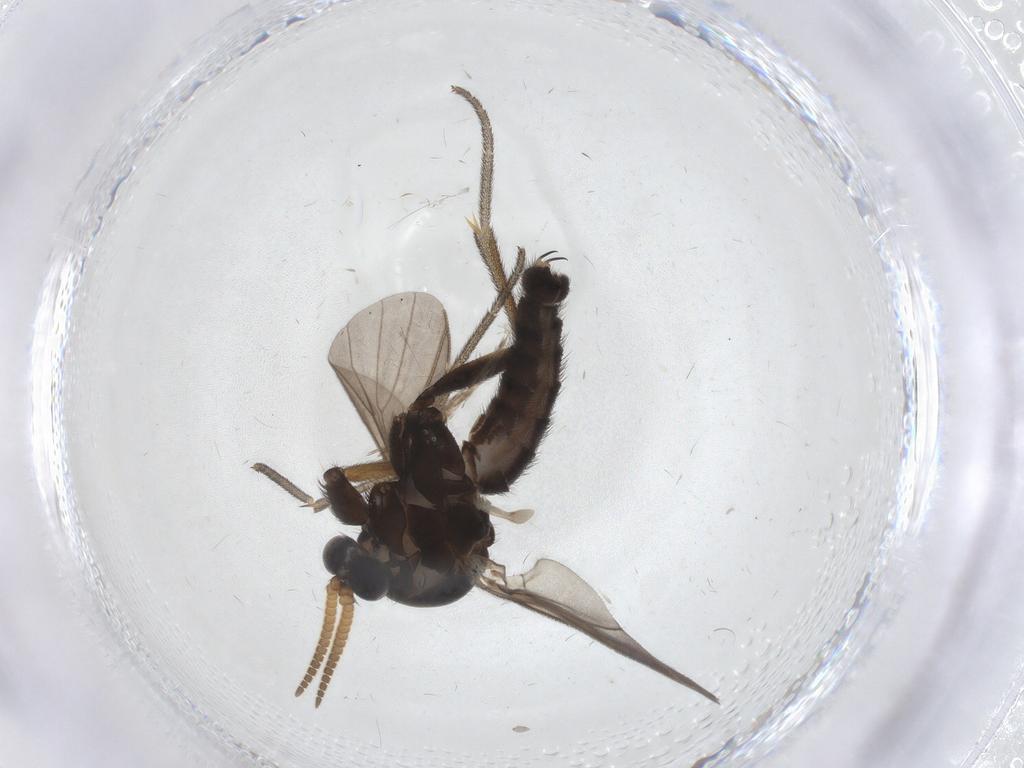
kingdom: Animalia
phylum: Arthropoda
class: Insecta
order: Diptera
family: Mycetophilidae
